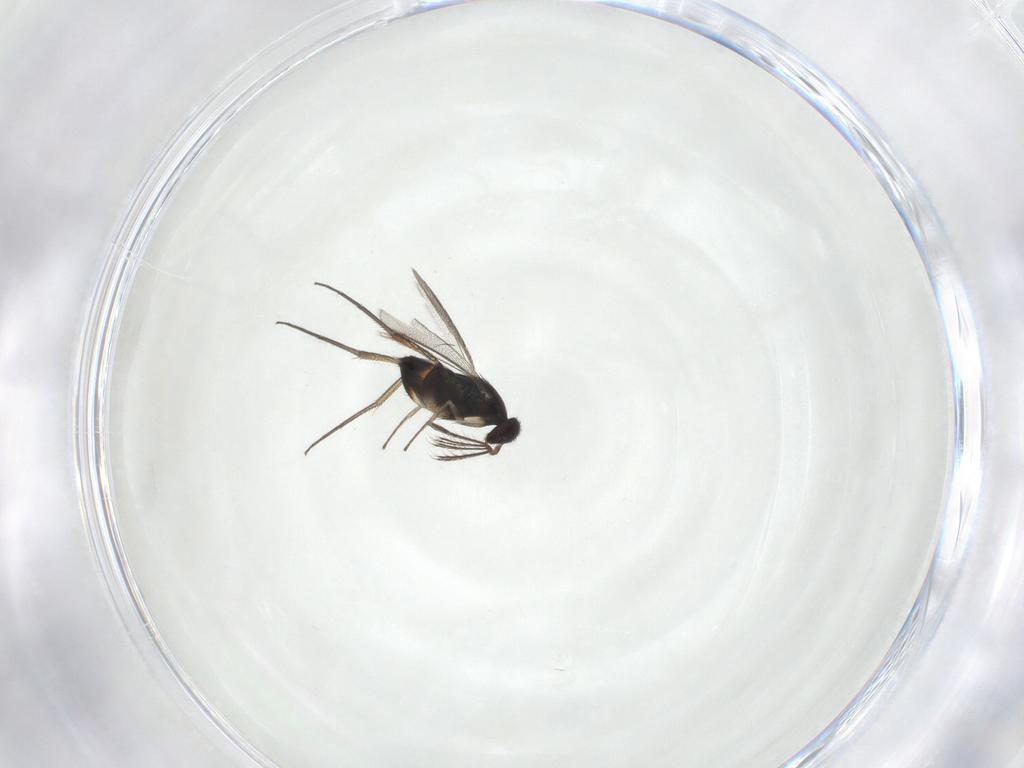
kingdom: Animalia
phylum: Arthropoda
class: Insecta
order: Hymenoptera
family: Eulophidae
